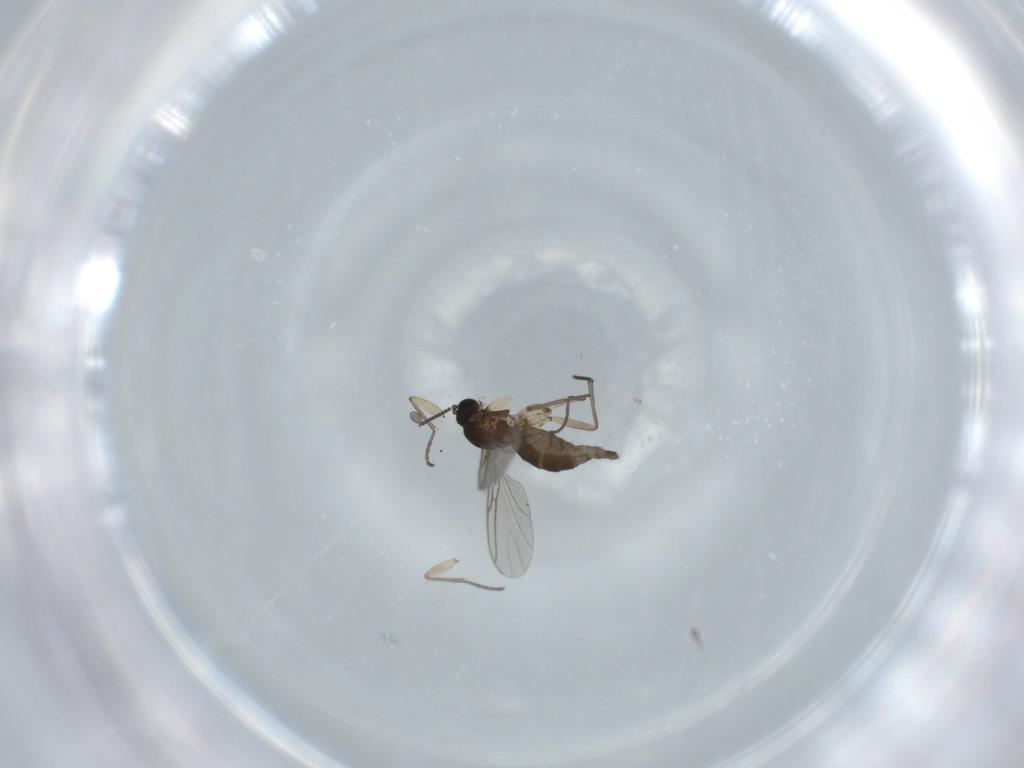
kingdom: Animalia
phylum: Arthropoda
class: Insecta
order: Diptera
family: Sciaridae
